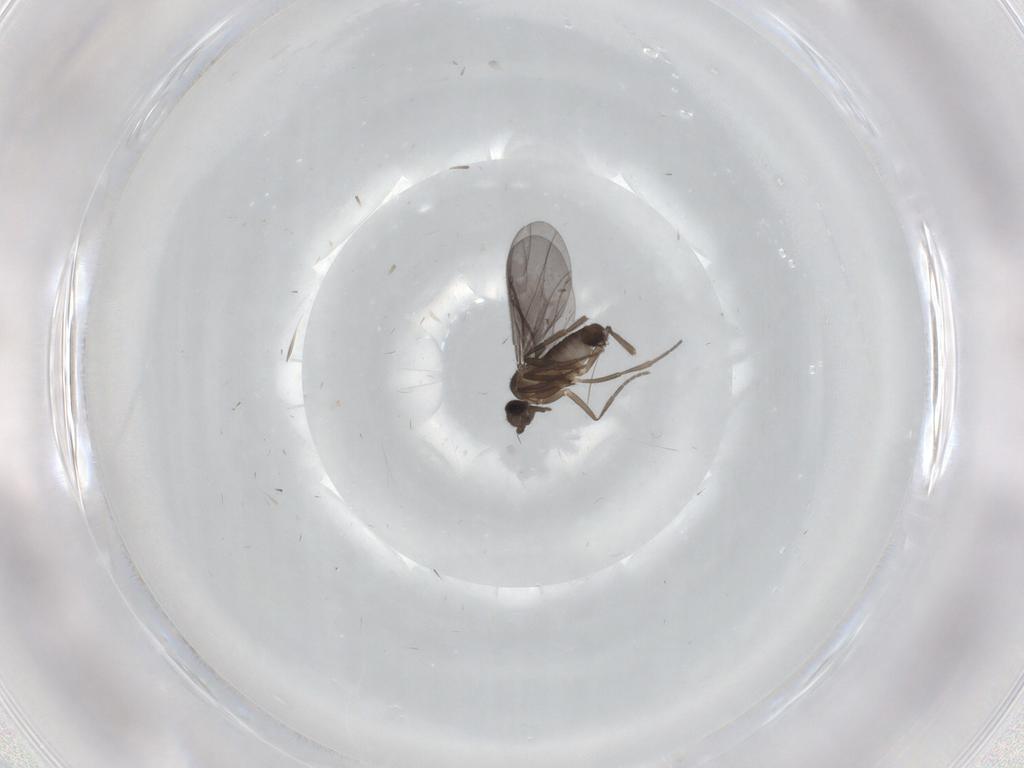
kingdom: Animalia
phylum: Arthropoda
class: Insecta
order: Diptera
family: Phoridae
